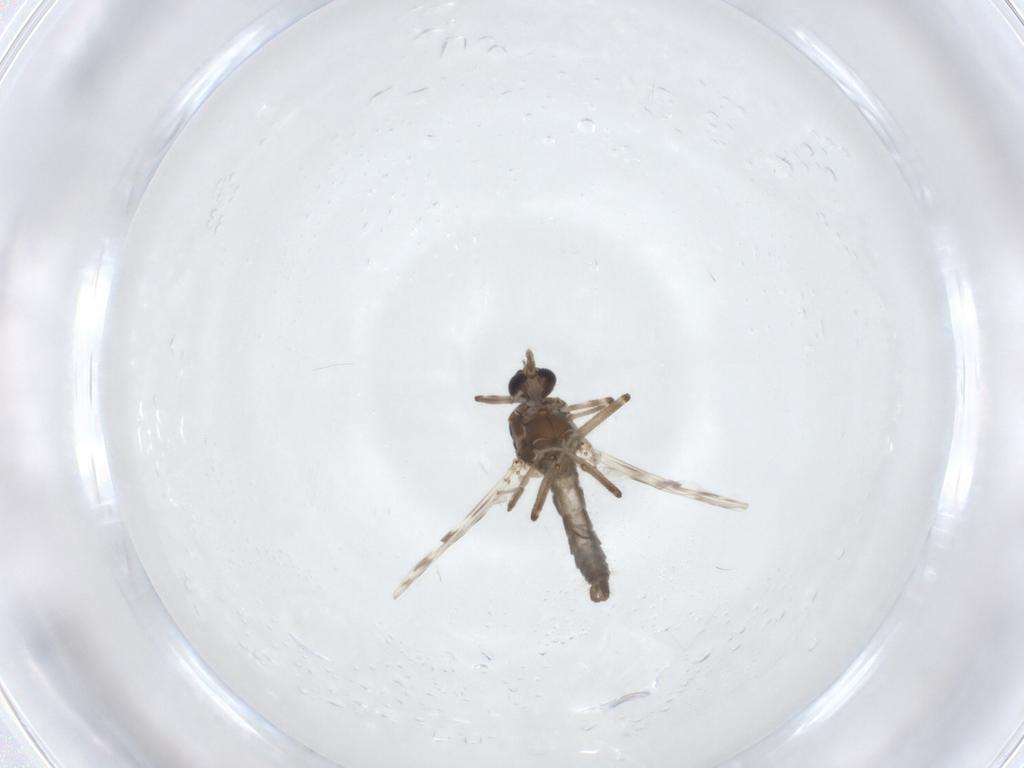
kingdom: Animalia
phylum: Arthropoda
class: Insecta
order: Diptera
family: Ceratopogonidae
